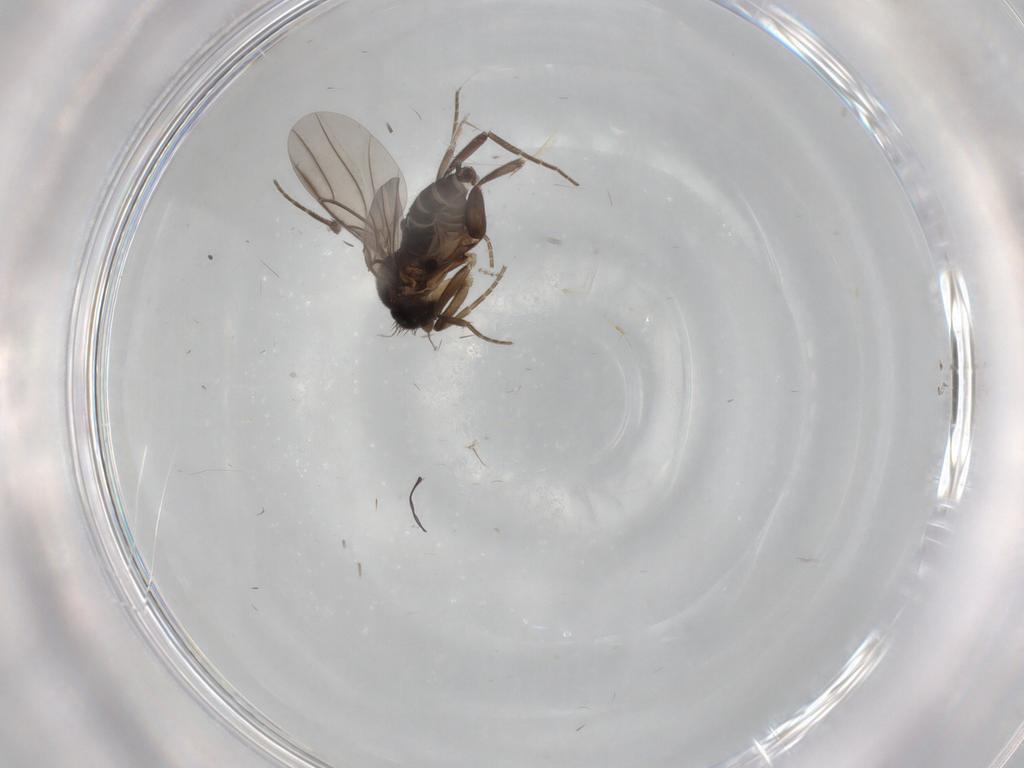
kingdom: Animalia
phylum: Arthropoda
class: Insecta
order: Diptera
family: Phoridae
